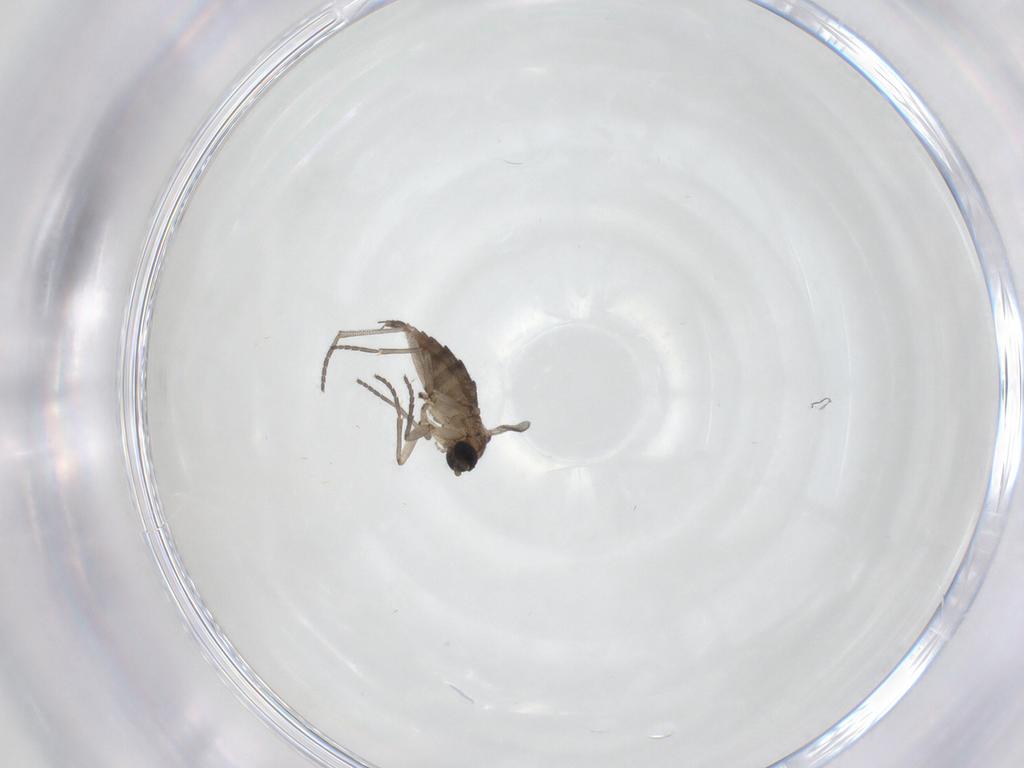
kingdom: Animalia
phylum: Arthropoda
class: Insecta
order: Diptera
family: Sciaridae
